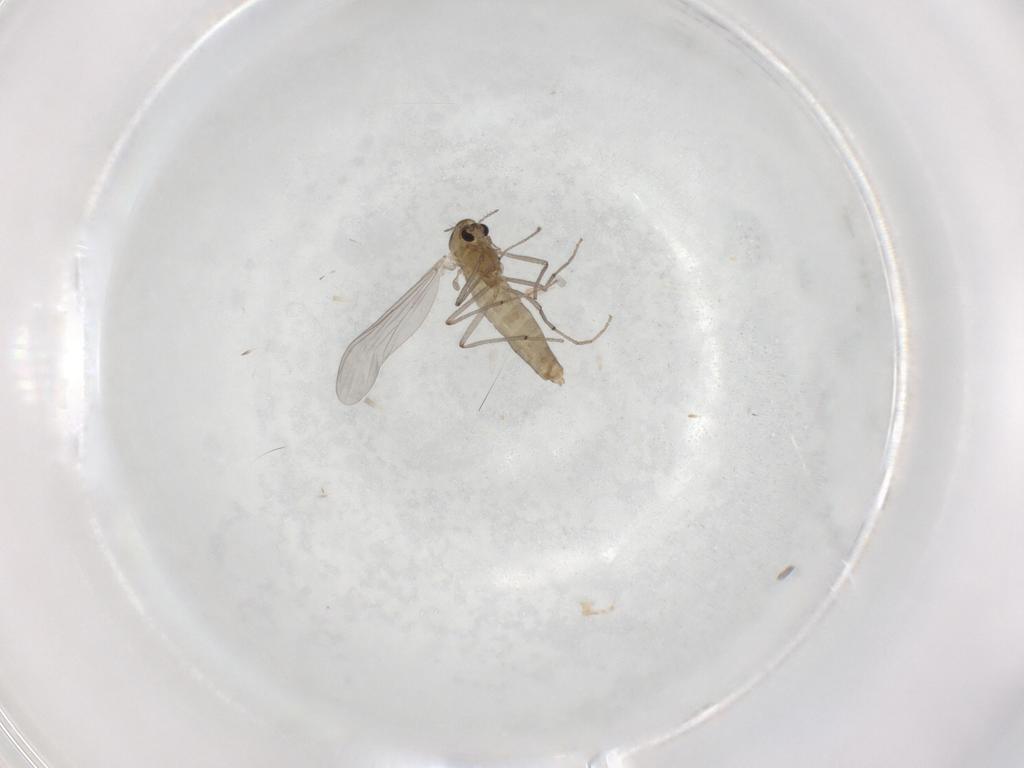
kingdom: Animalia
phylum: Arthropoda
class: Insecta
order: Diptera
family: Chironomidae
